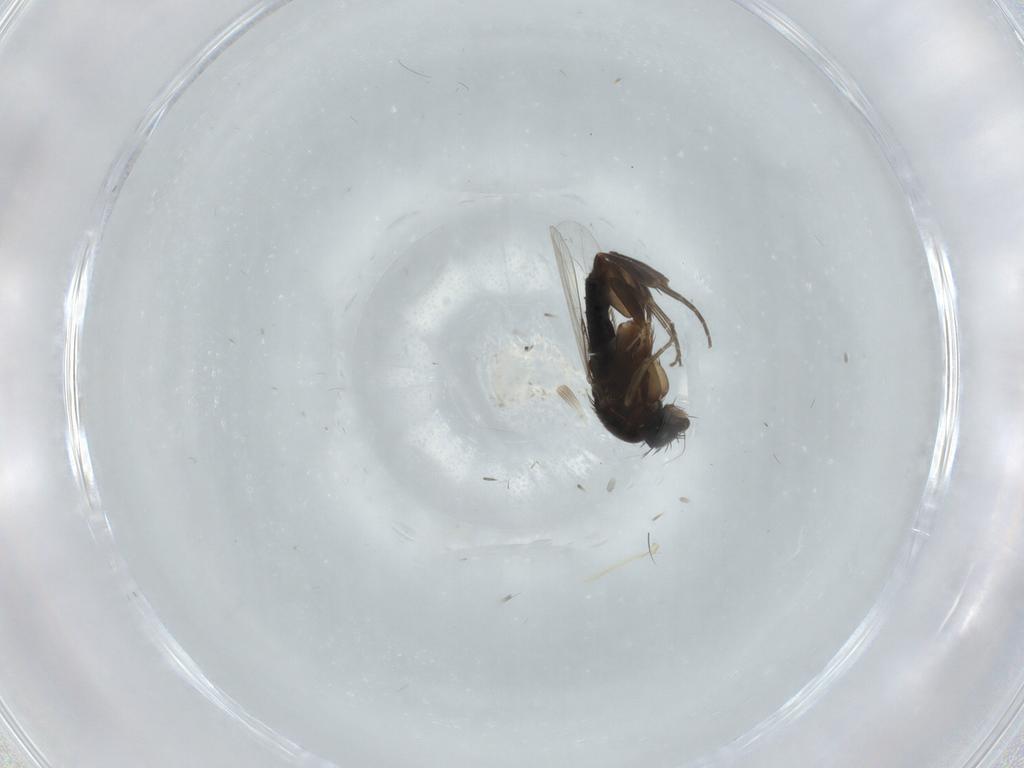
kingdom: Animalia
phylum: Arthropoda
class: Insecta
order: Diptera
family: Phoridae
